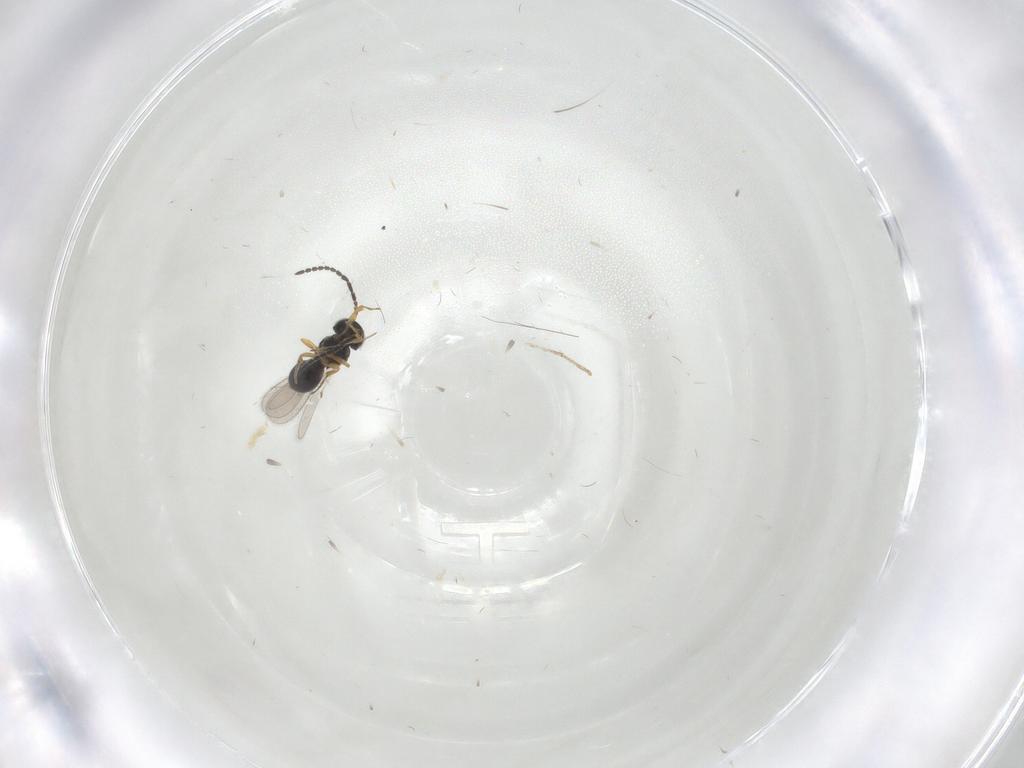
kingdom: Animalia
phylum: Arthropoda
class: Insecta
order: Hymenoptera
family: Scelionidae
